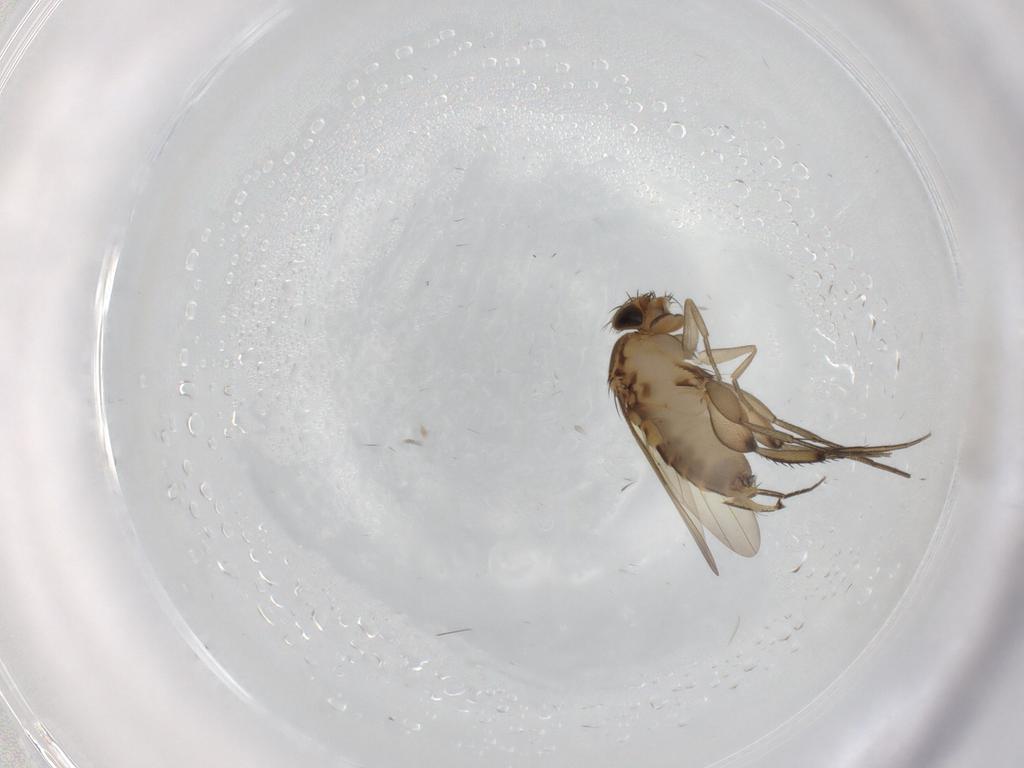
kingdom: Animalia
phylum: Arthropoda
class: Insecta
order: Diptera
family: Phoridae
